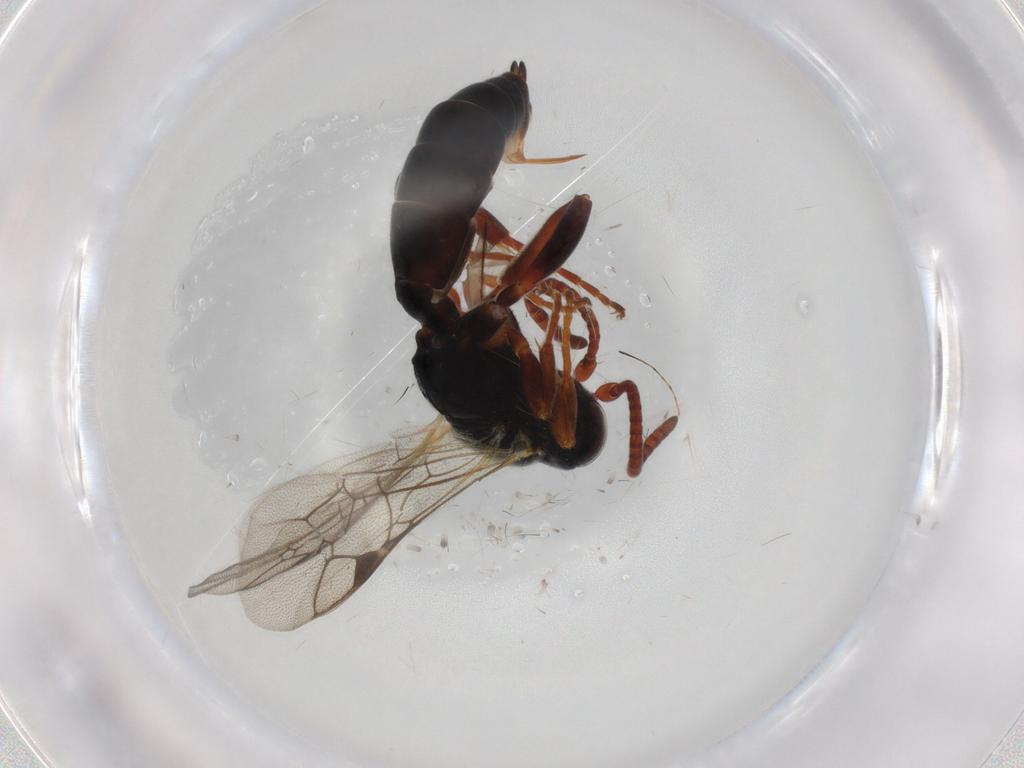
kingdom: Animalia
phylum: Arthropoda
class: Insecta
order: Hymenoptera
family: Ichneumonidae
